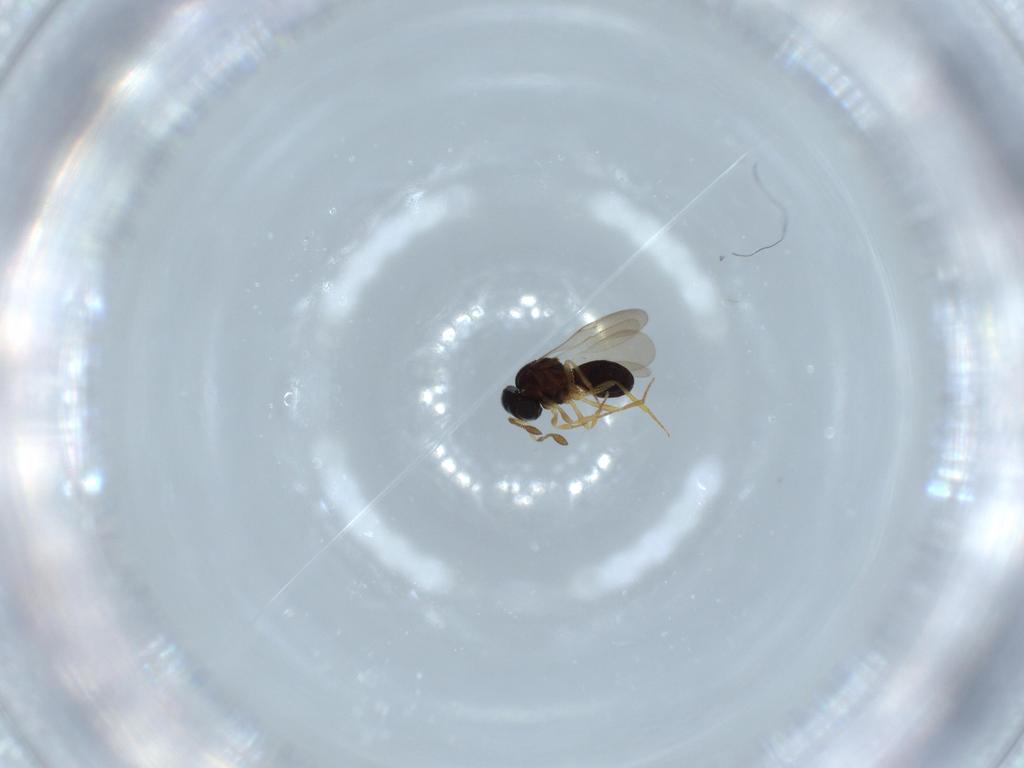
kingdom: Animalia
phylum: Arthropoda
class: Insecta
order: Hymenoptera
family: Scelionidae
